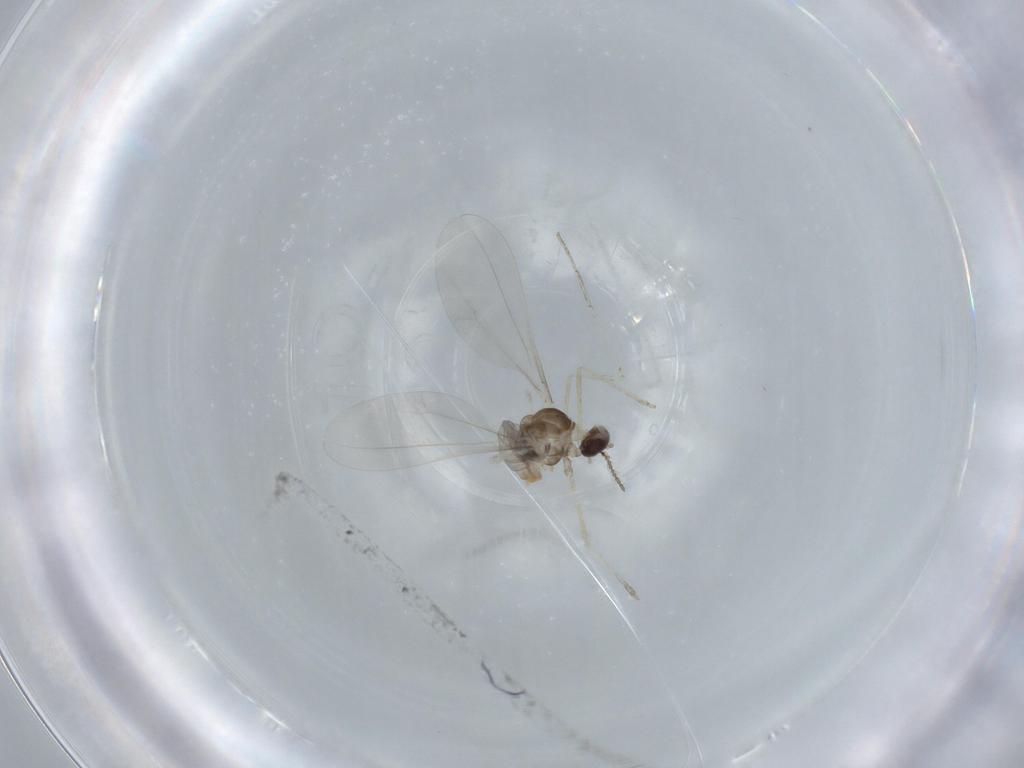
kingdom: Animalia
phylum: Arthropoda
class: Insecta
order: Diptera
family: Cecidomyiidae
